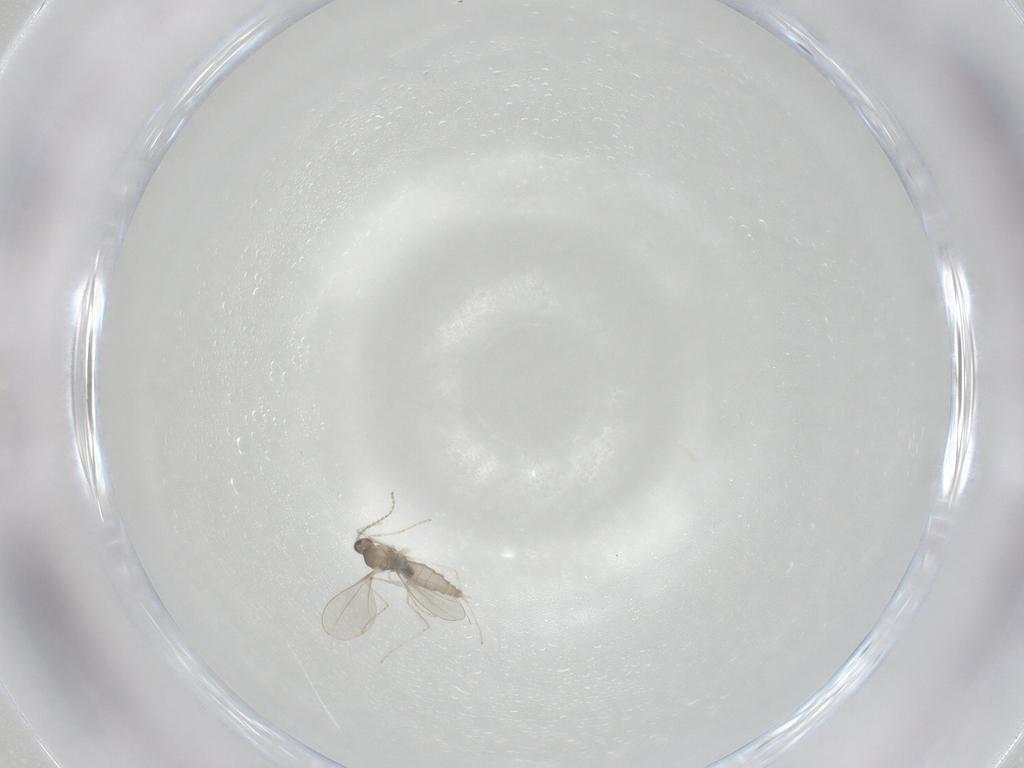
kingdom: Animalia
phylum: Arthropoda
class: Insecta
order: Diptera
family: Cecidomyiidae
